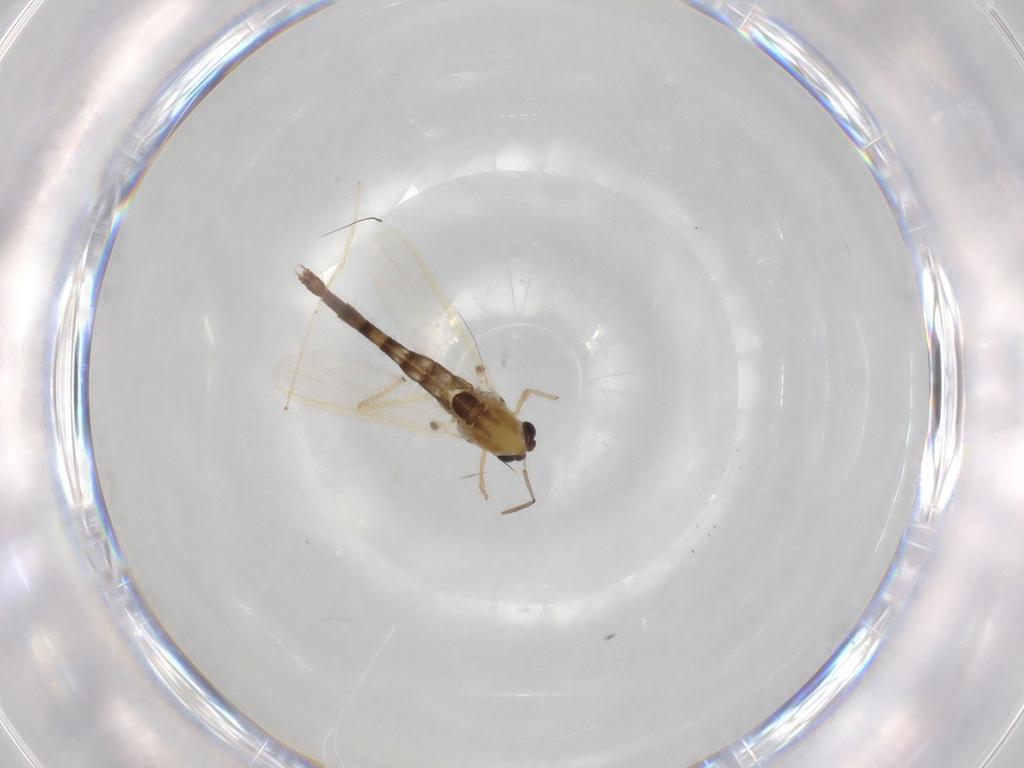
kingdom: Animalia
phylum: Arthropoda
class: Insecta
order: Diptera
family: Chironomidae
